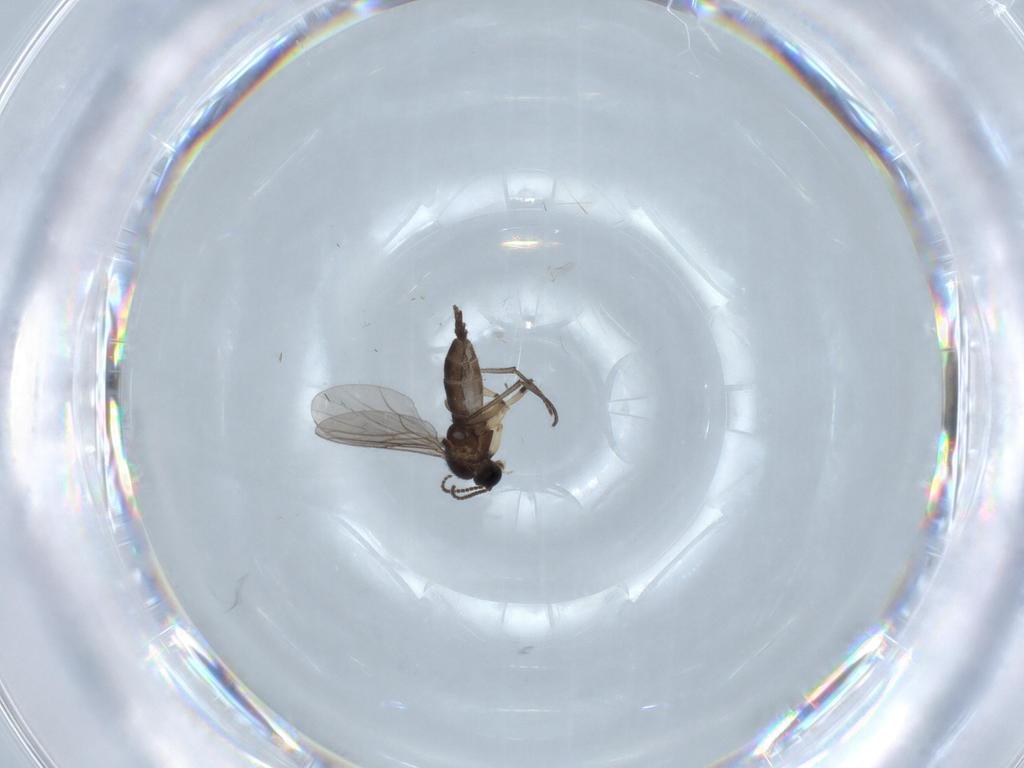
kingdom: Animalia
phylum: Arthropoda
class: Insecta
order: Diptera
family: Sciaridae
